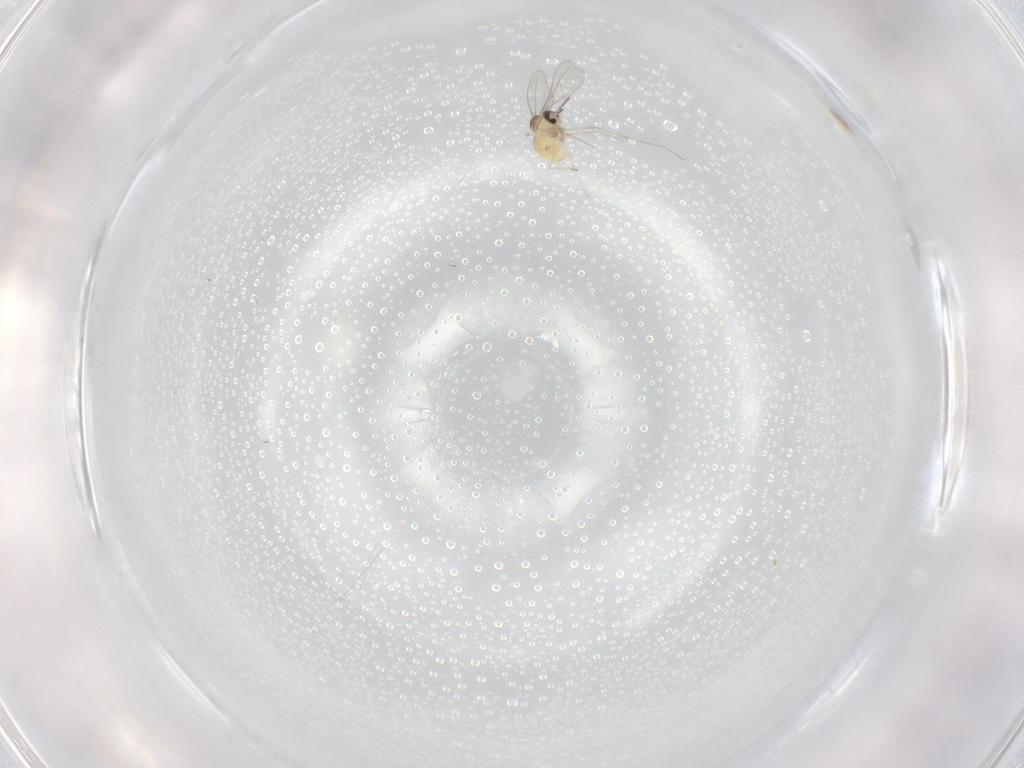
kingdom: Animalia
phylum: Arthropoda
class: Insecta
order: Diptera
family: Cecidomyiidae
